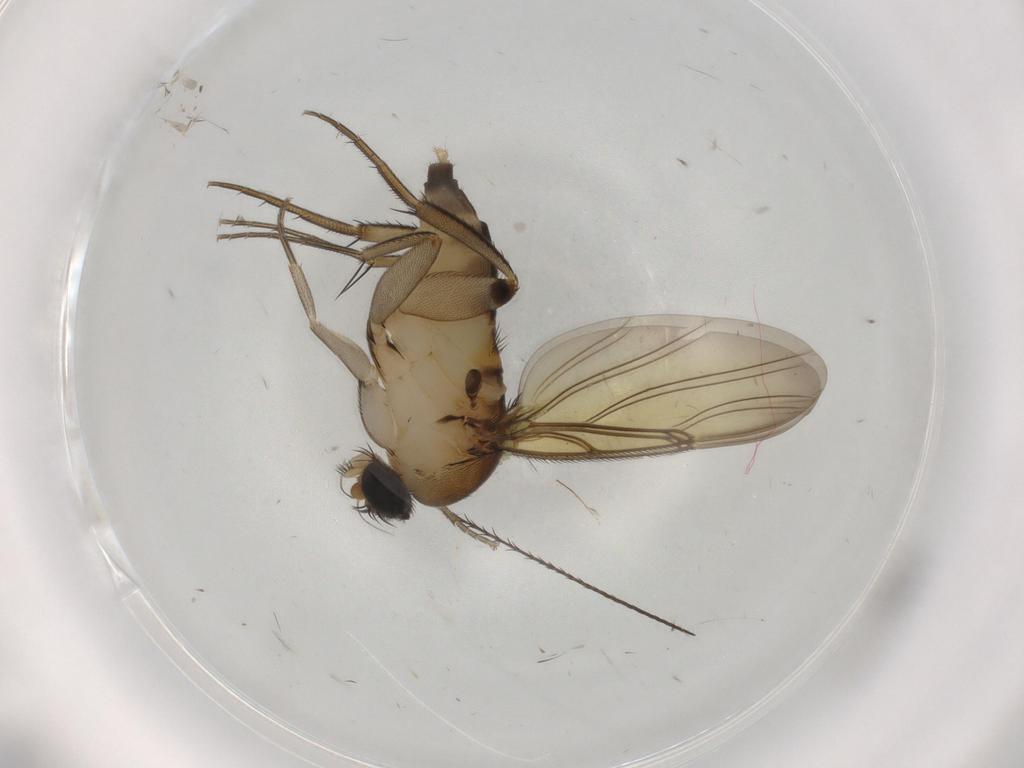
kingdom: Animalia
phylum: Arthropoda
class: Insecta
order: Diptera
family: Phoridae
